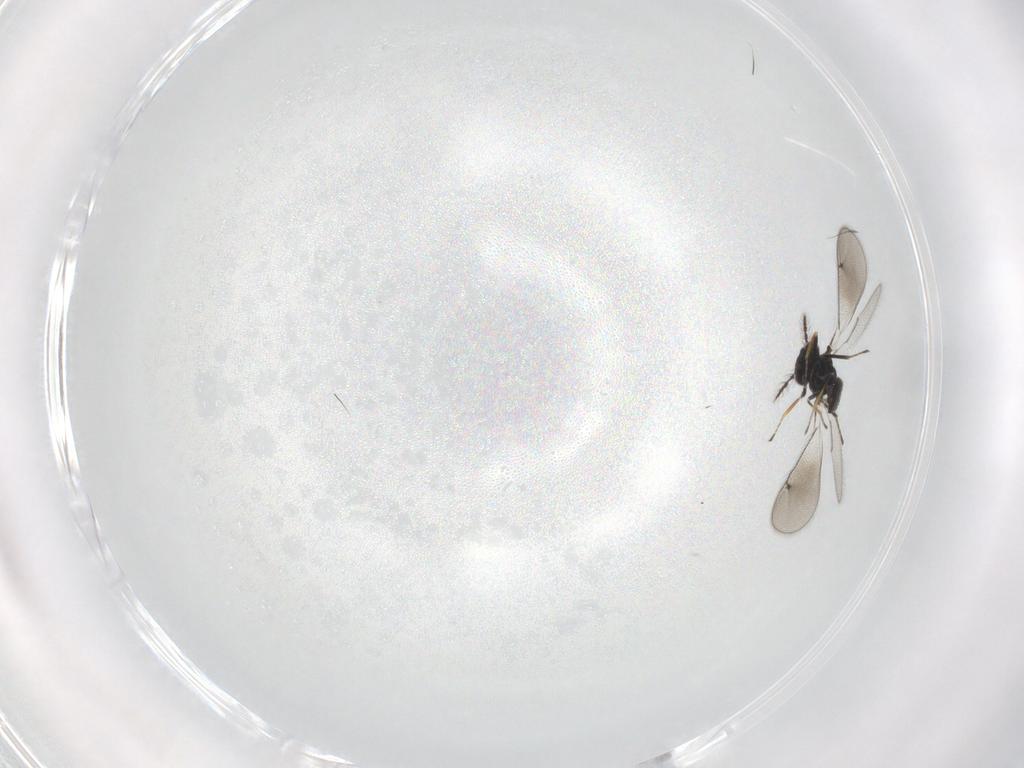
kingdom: Animalia
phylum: Arthropoda
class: Insecta
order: Hymenoptera
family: Eulophidae
